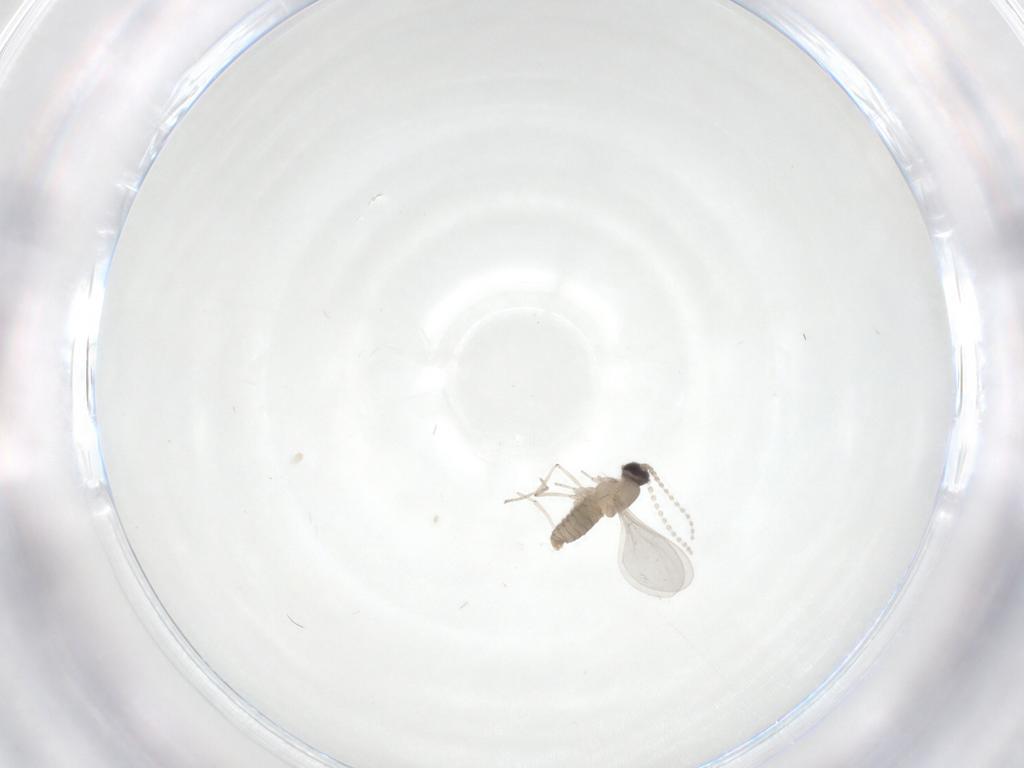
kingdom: Animalia
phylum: Arthropoda
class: Insecta
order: Diptera
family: Cecidomyiidae
